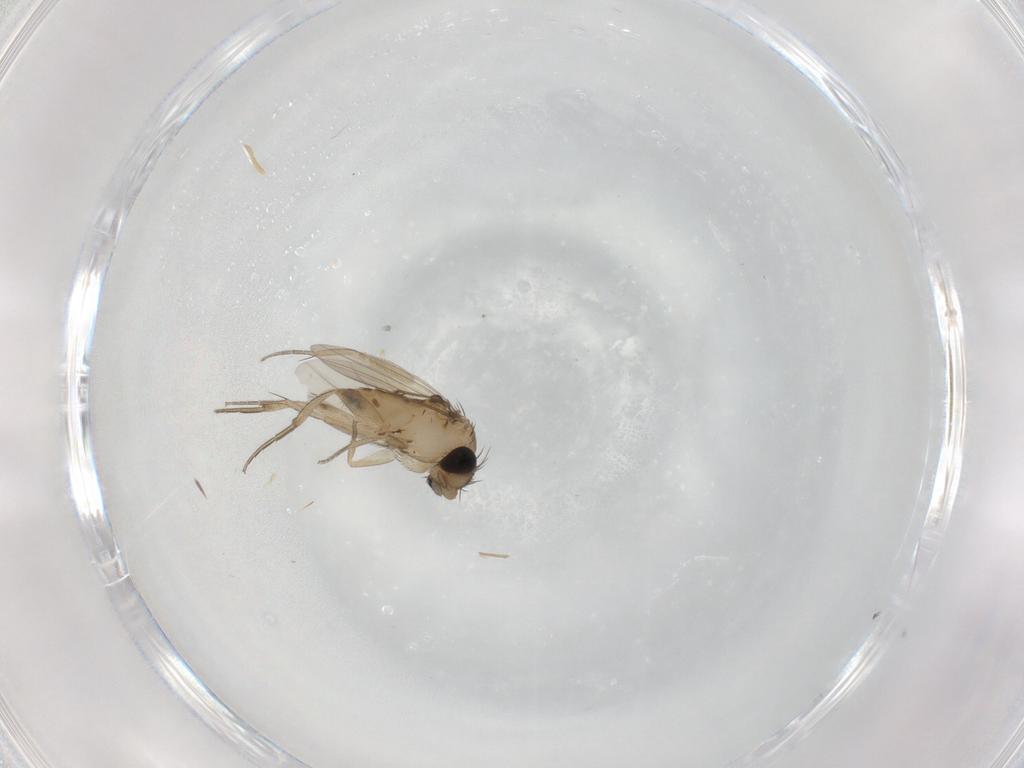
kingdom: Animalia
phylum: Arthropoda
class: Insecta
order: Diptera
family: Phoridae
